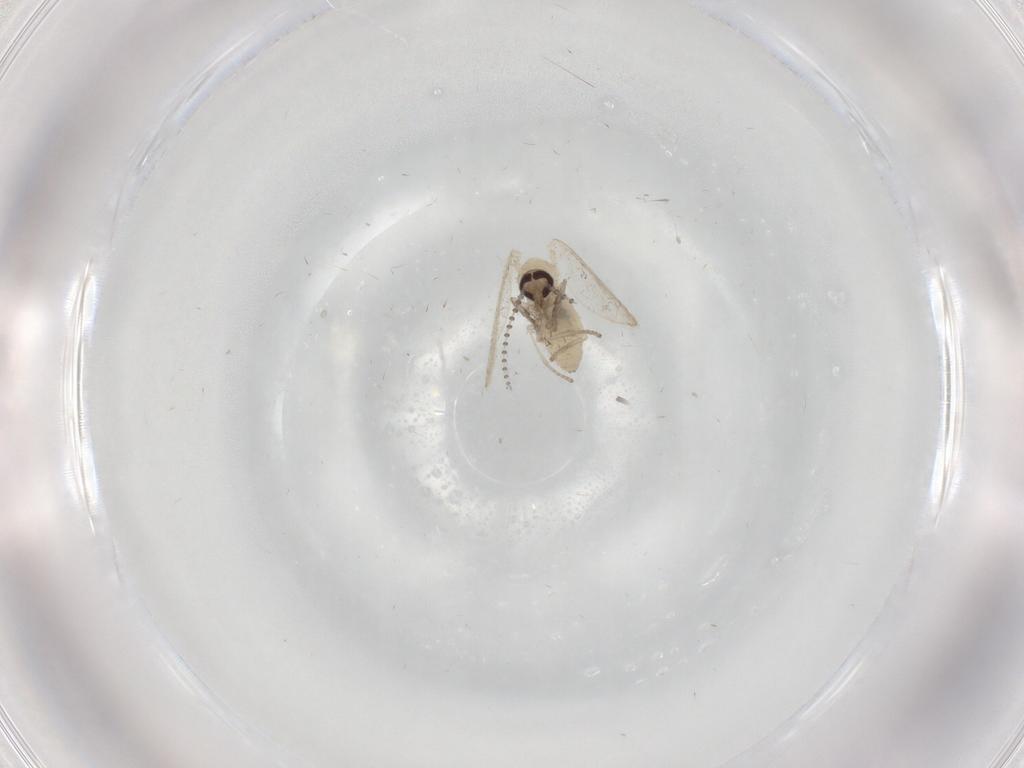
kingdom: Animalia
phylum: Arthropoda
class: Insecta
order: Diptera
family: Psychodidae
